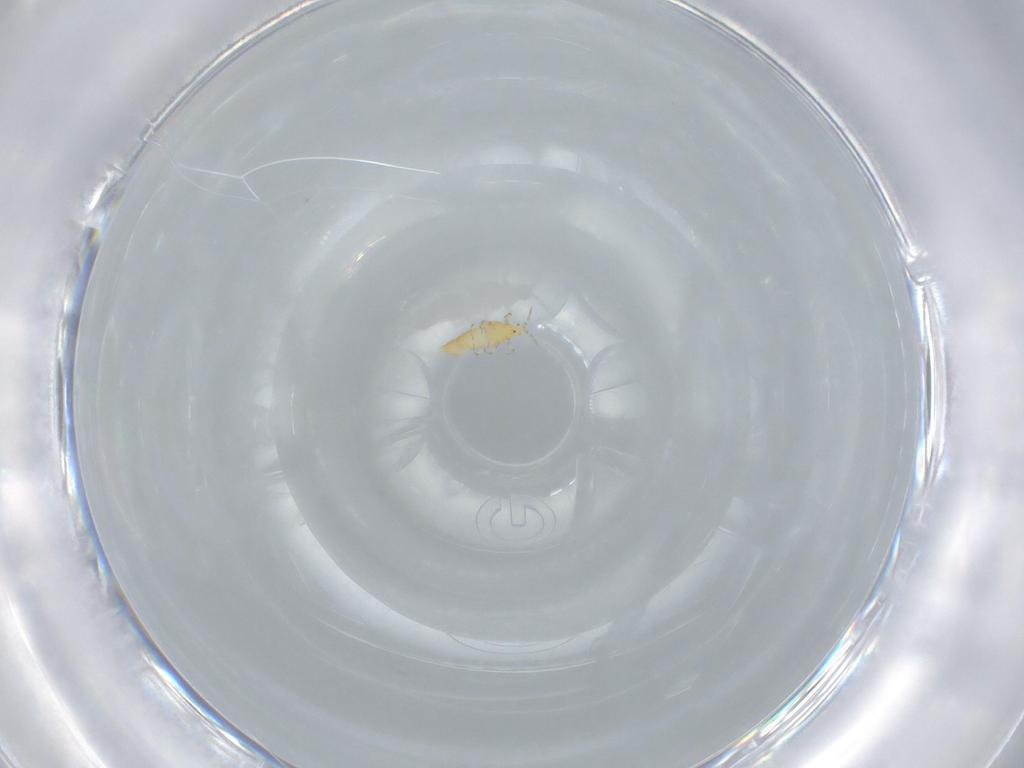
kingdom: Animalia
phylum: Arthropoda
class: Insecta
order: Thysanoptera
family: Thripidae
